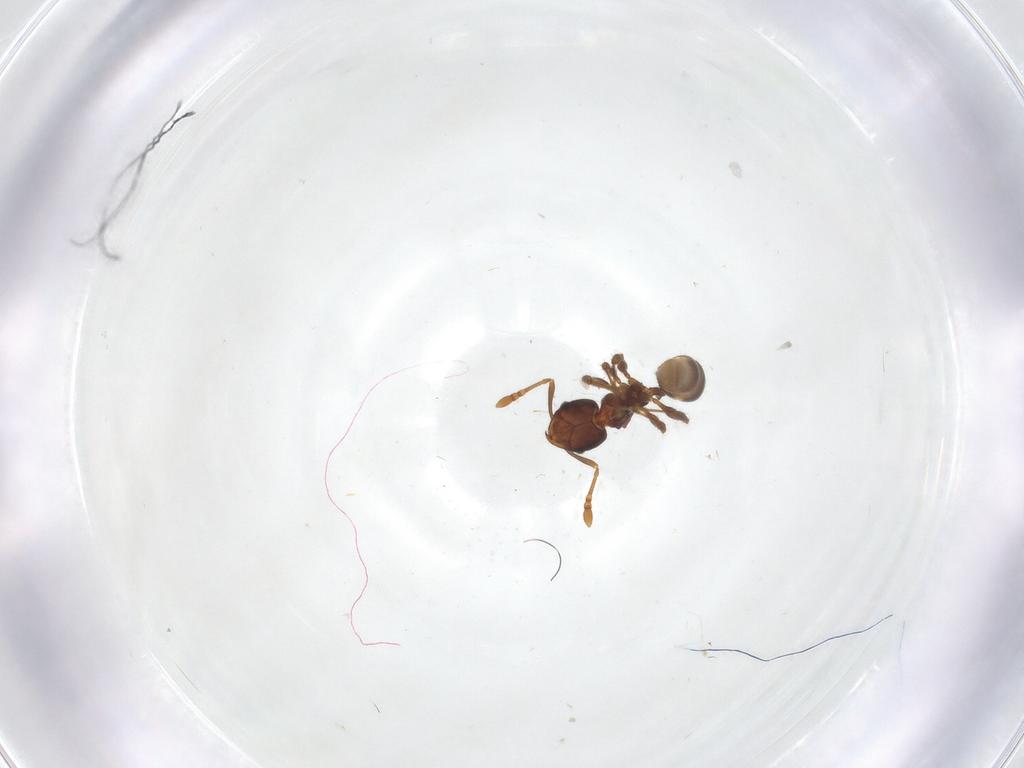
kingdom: Animalia
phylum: Arthropoda
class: Insecta
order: Hymenoptera
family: Formicidae
